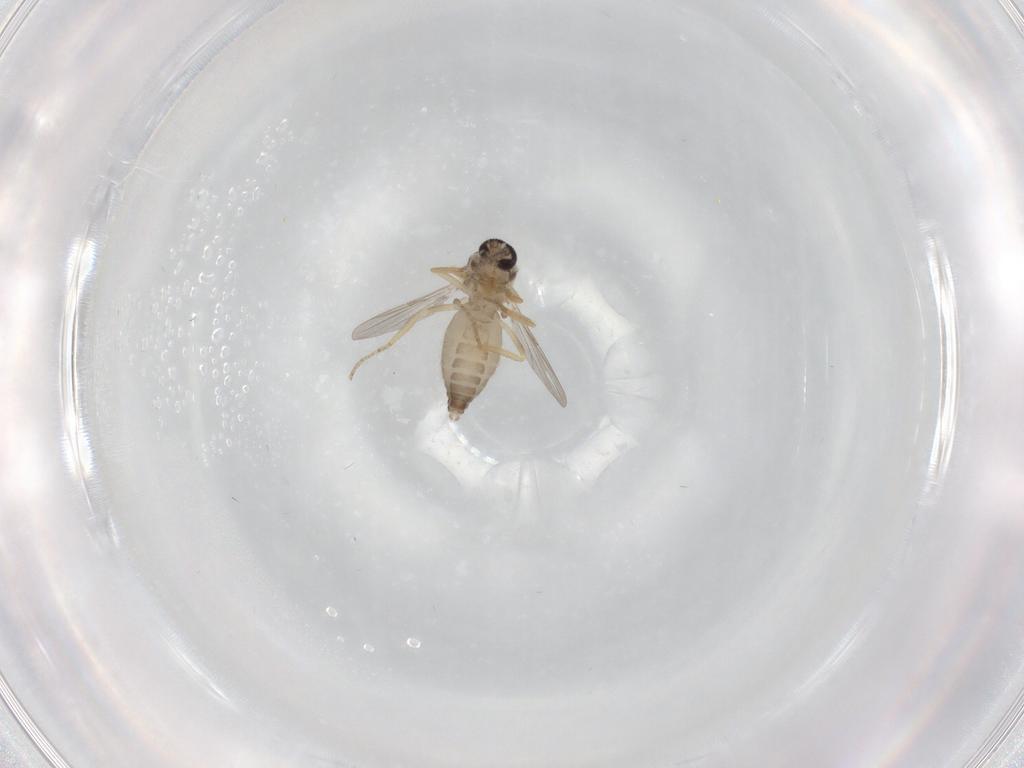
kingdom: Animalia
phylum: Arthropoda
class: Insecta
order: Diptera
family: Ceratopogonidae
